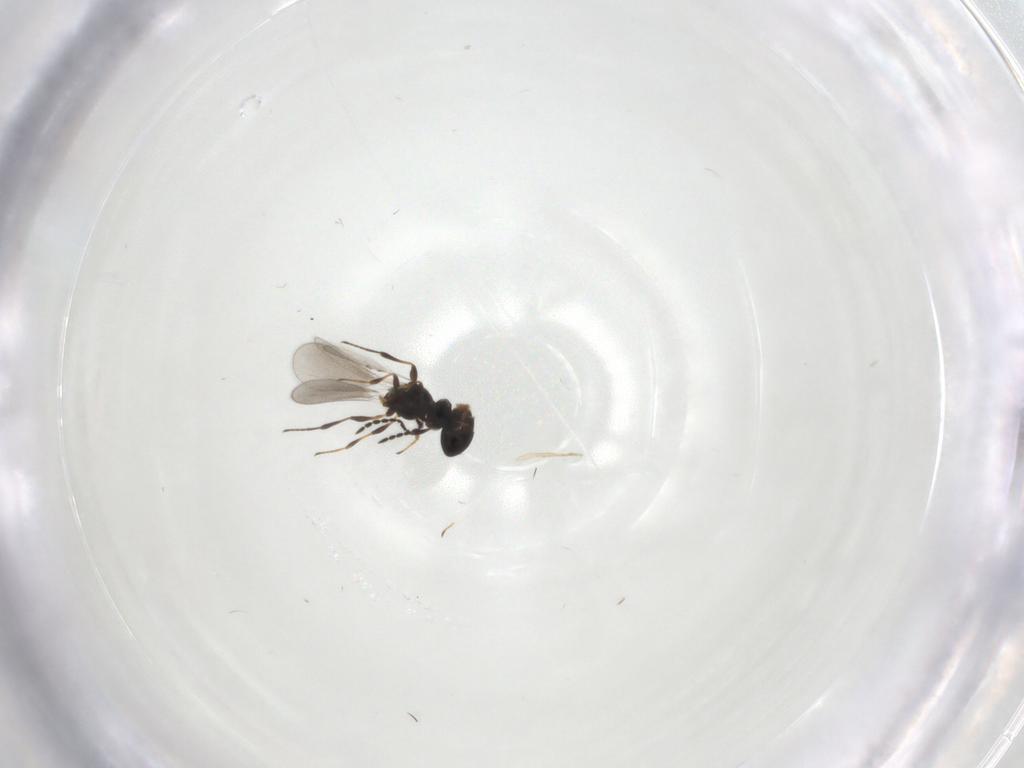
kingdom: Animalia
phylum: Arthropoda
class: Insecta
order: Hymenoptera
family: Platygastridae
